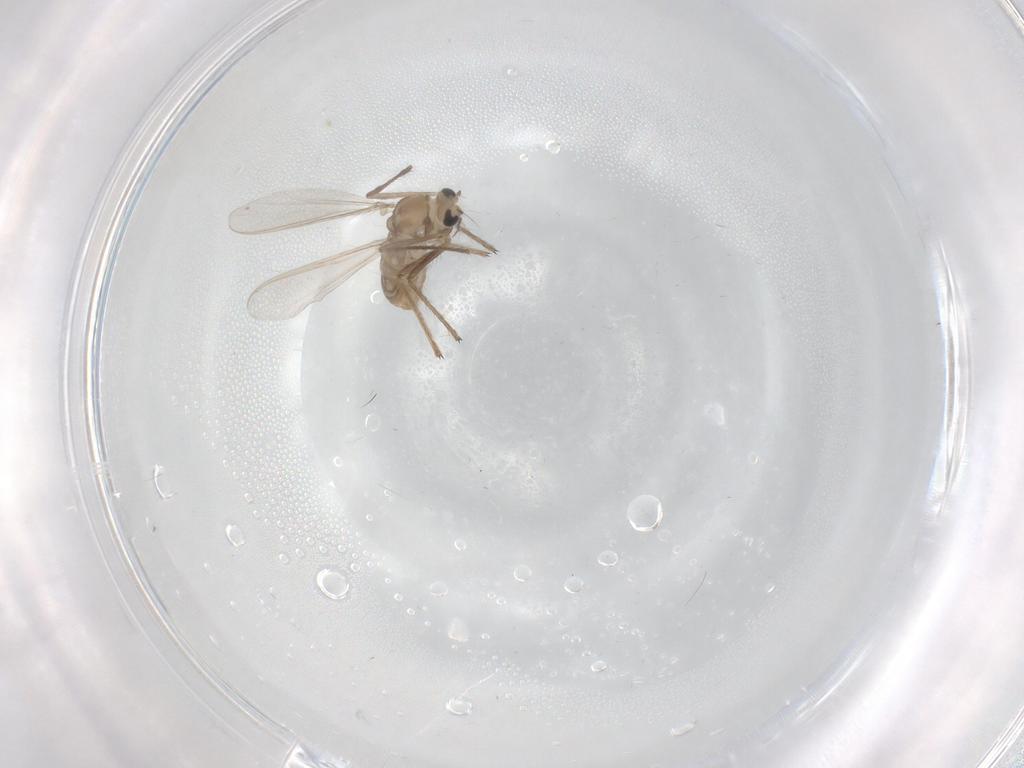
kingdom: Animalia
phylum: Arthropoda
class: Insecta
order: Diptera
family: Chironomidae
